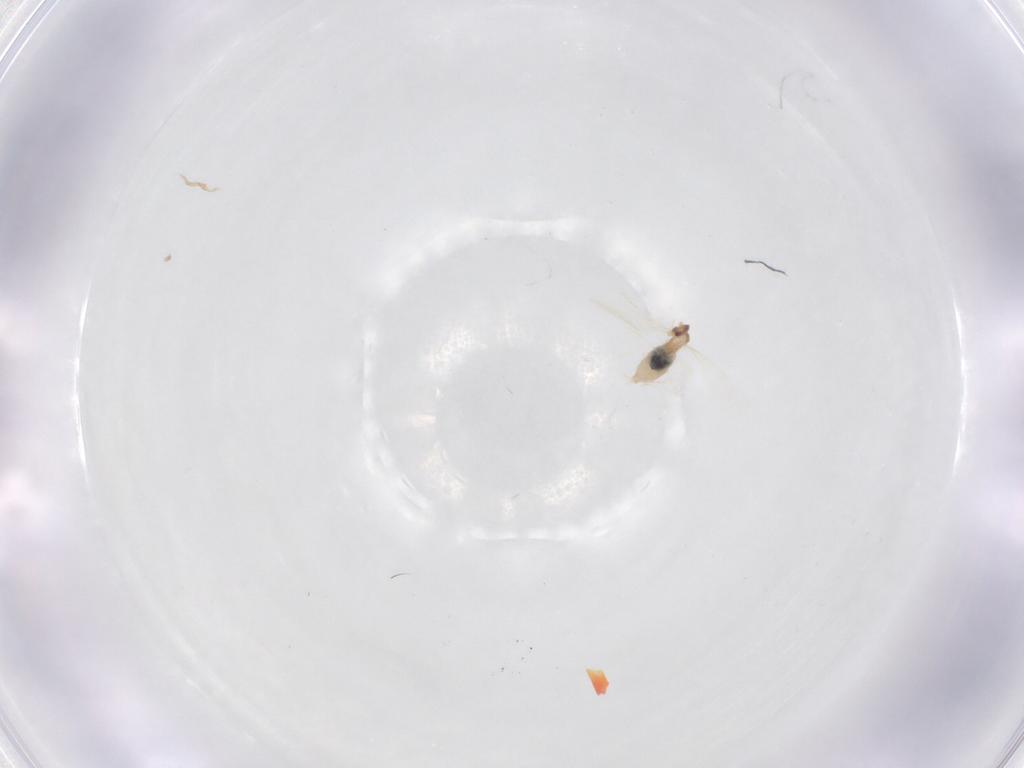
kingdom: Animalia
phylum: Arthropoda
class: Insecta
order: Diptera
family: Cecidomyiidae
